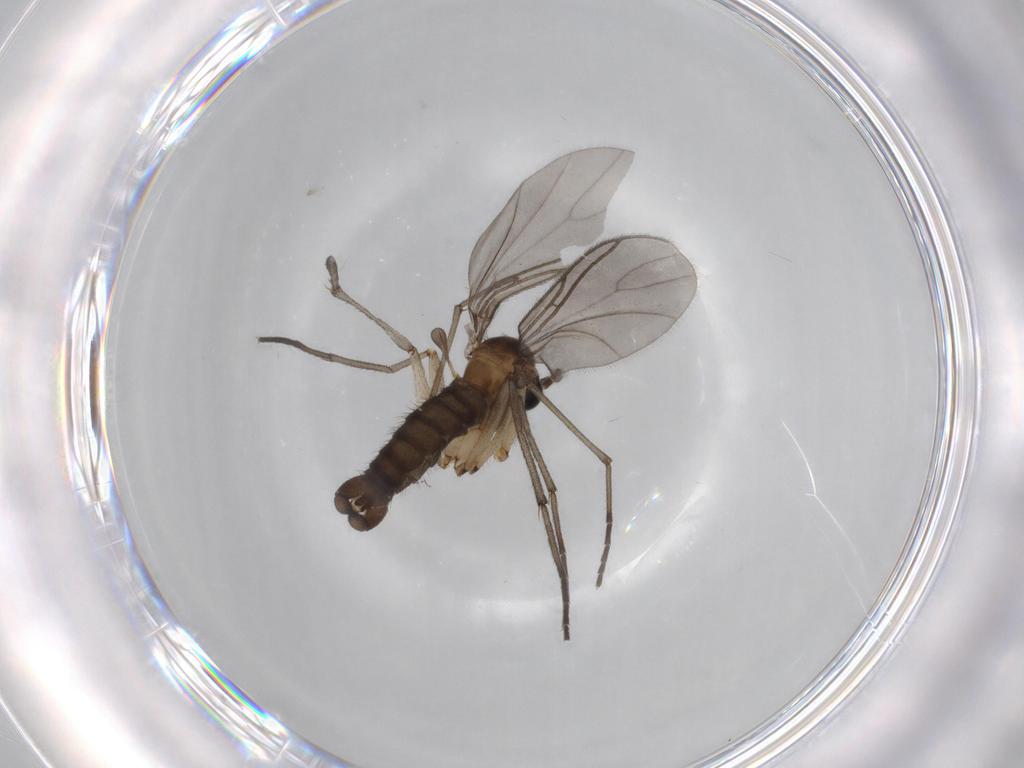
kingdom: Animalia
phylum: Arthropoda
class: Insecta
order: Diptera
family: Sciaridae
